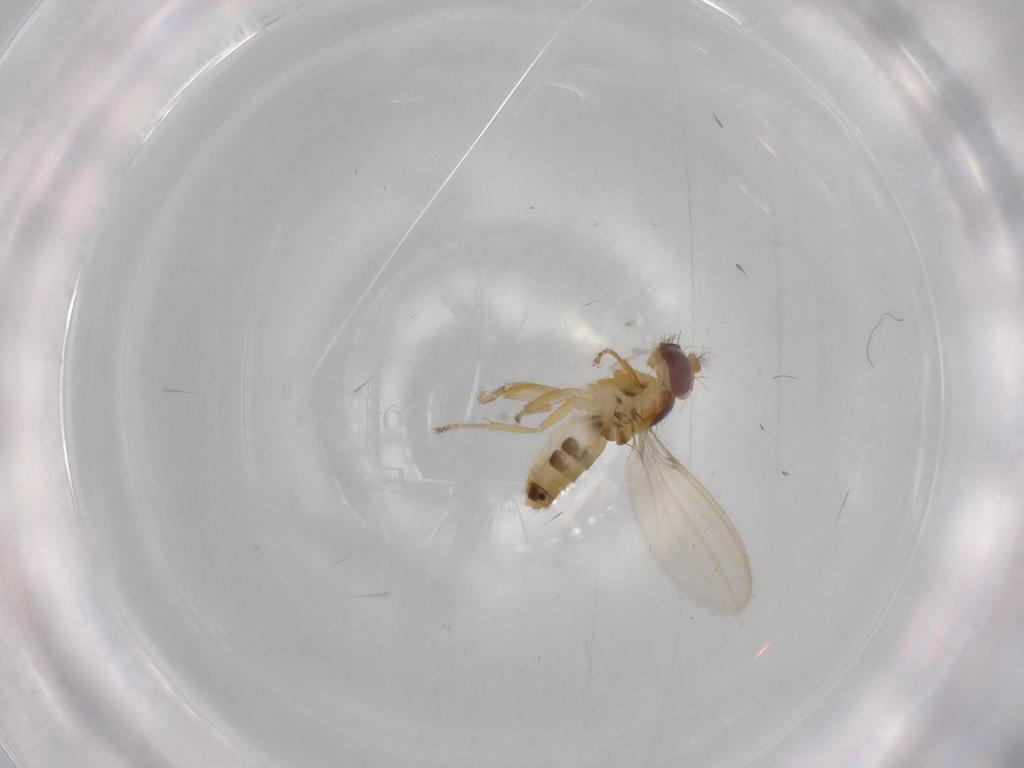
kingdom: Animalia
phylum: Arthropoda
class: Insecta
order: Diptera
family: Periscelididae
